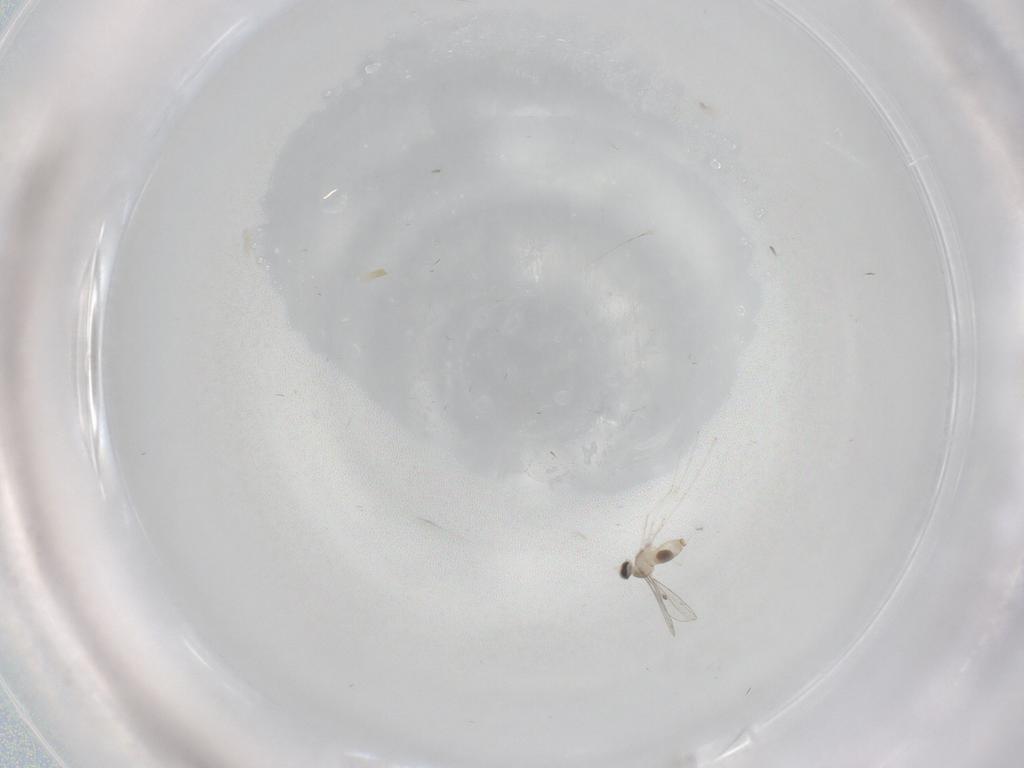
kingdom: Animalia
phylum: Arthropoda
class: Insecta
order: Diptera
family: Cecidomyiidae
